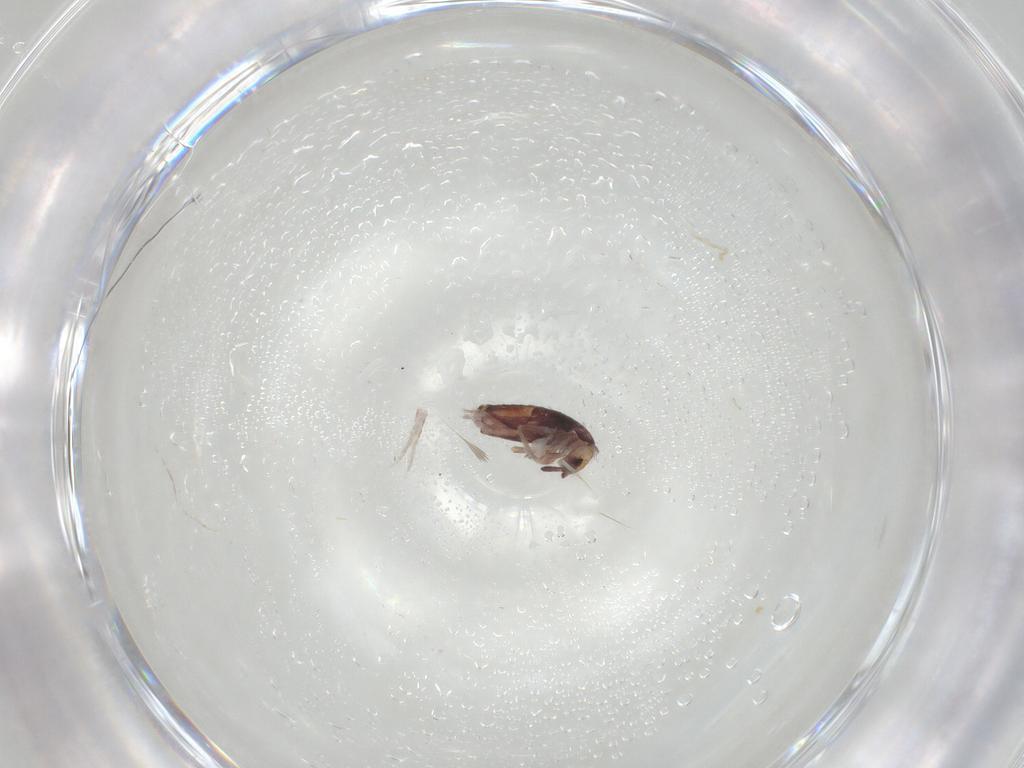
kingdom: Animalia
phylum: Arthropoda
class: Collembola
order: Entomobryomorpha
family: Entomobryidae
